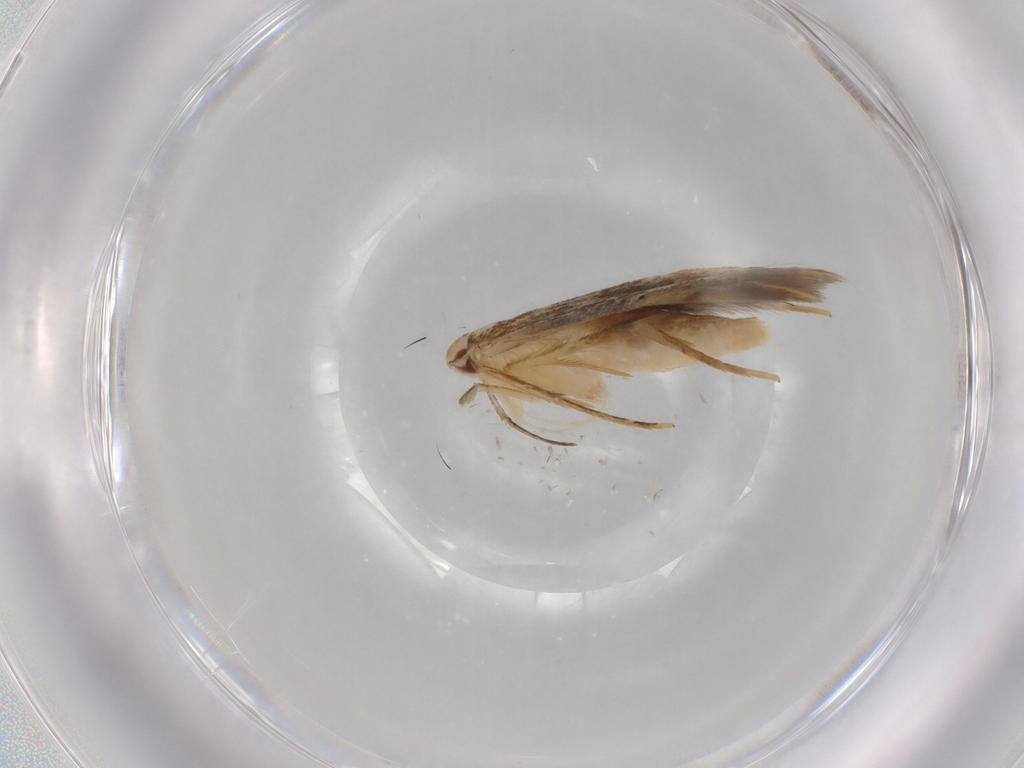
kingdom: Animalia
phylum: Arthropoda
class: Insecta
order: Lepidoptera
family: Gelechiidae
